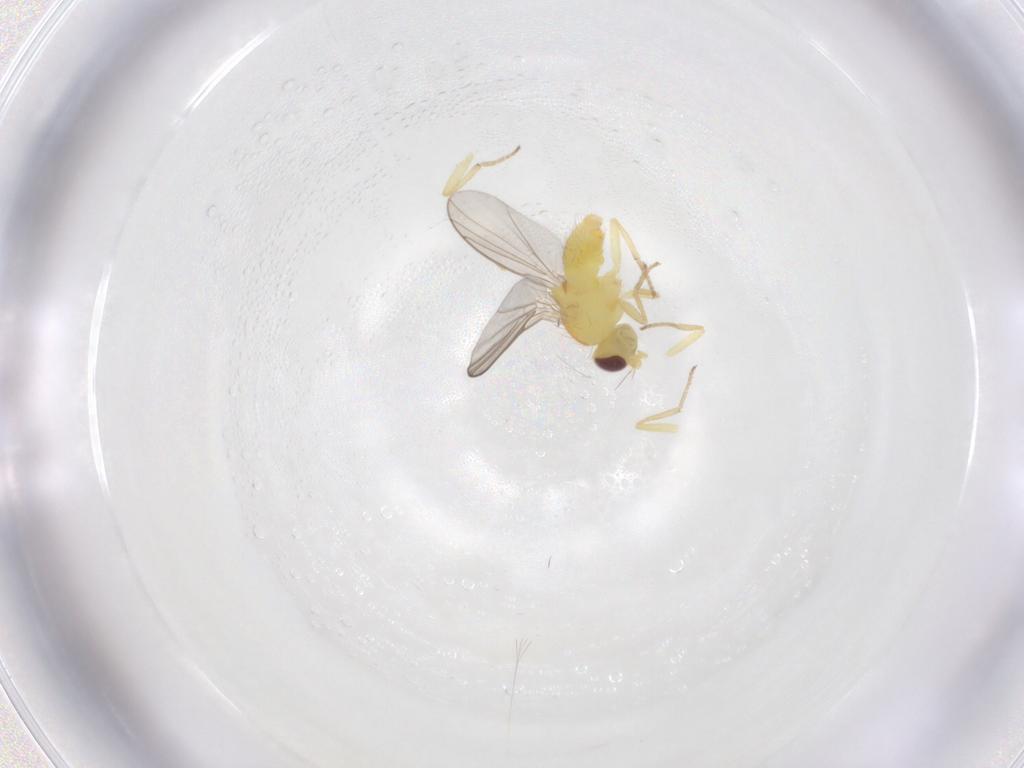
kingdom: Animalia
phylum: Arthropoda
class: Insecta
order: Diptera
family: Chloropidae
